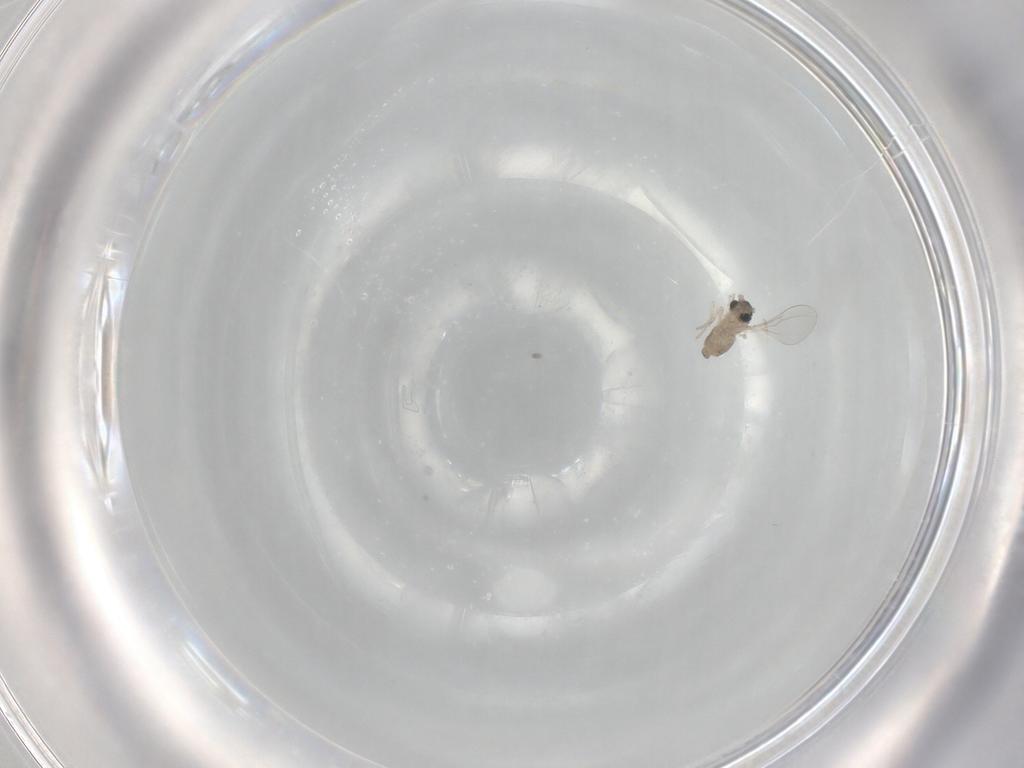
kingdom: Animalia
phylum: Arthropoda
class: Insecta
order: Diptera
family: Cecidomyiidae
